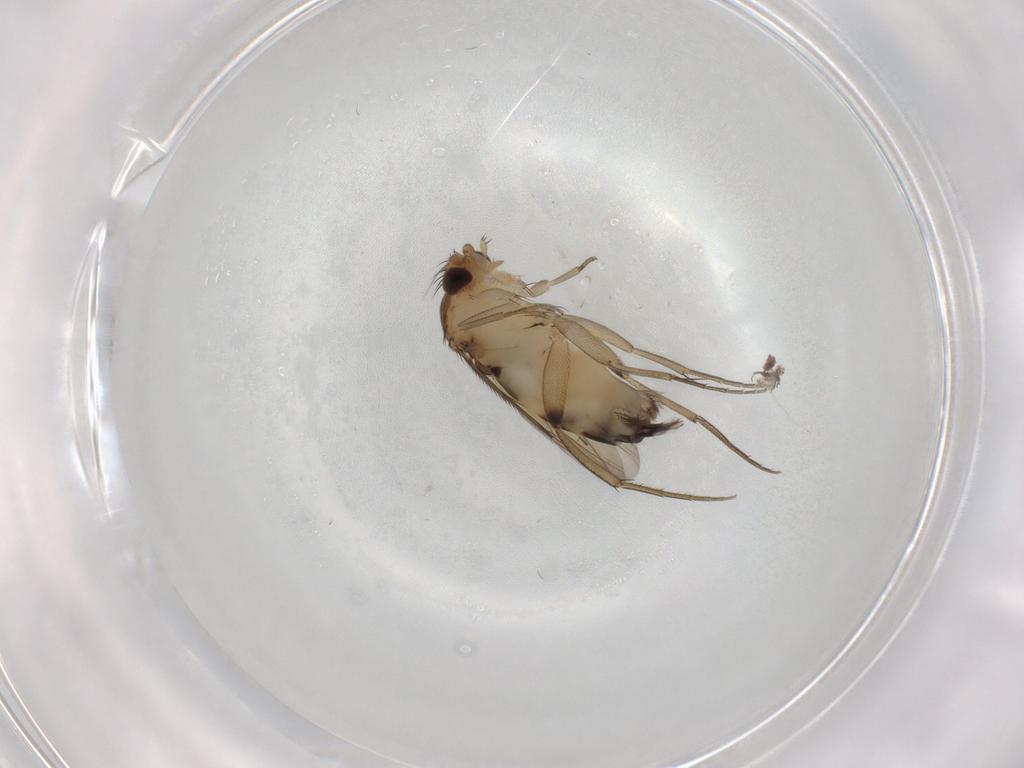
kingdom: Animalia
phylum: Arthropoda
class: Insecta
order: Diptera
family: Phoridae
